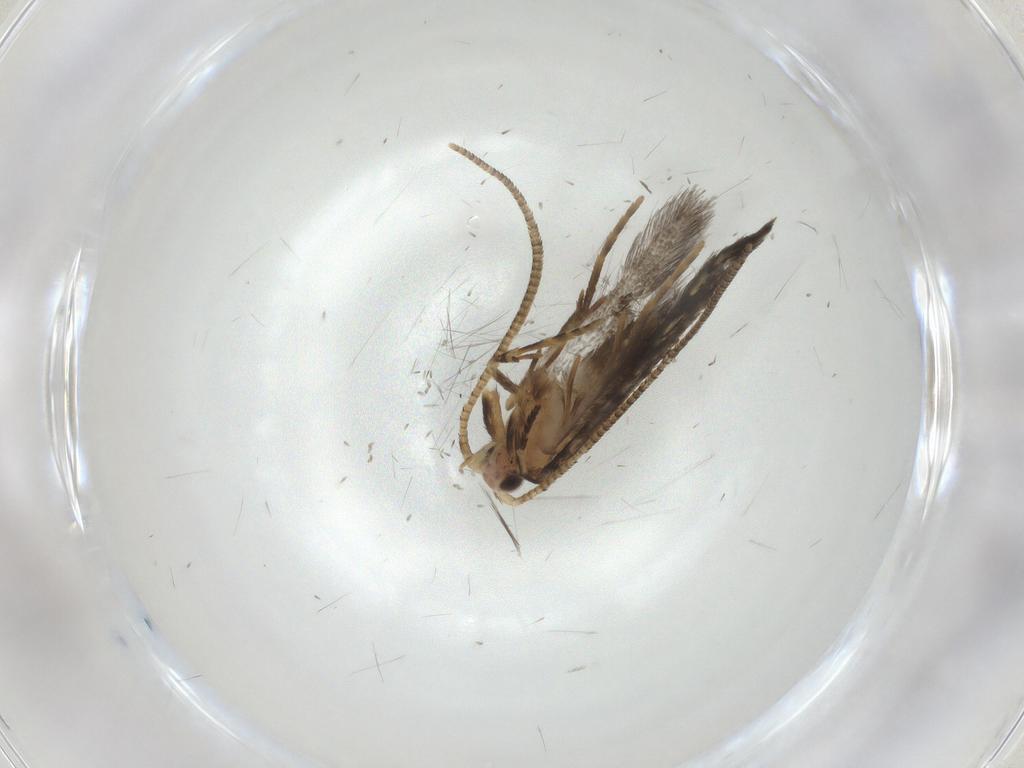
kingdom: Animalia
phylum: Arthropoda
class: Insecta
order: Lepidoptera
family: Tineidae
